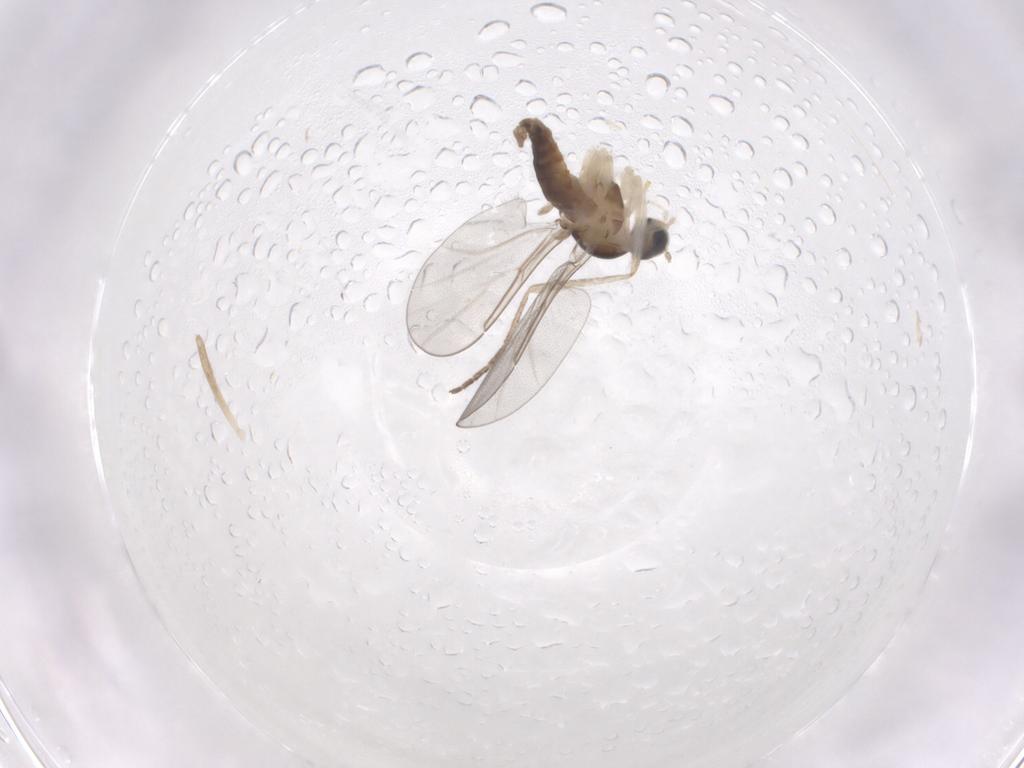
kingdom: Animalia
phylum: Arthropoda
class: Insecta
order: Diptera
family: Cecidomyiidae
